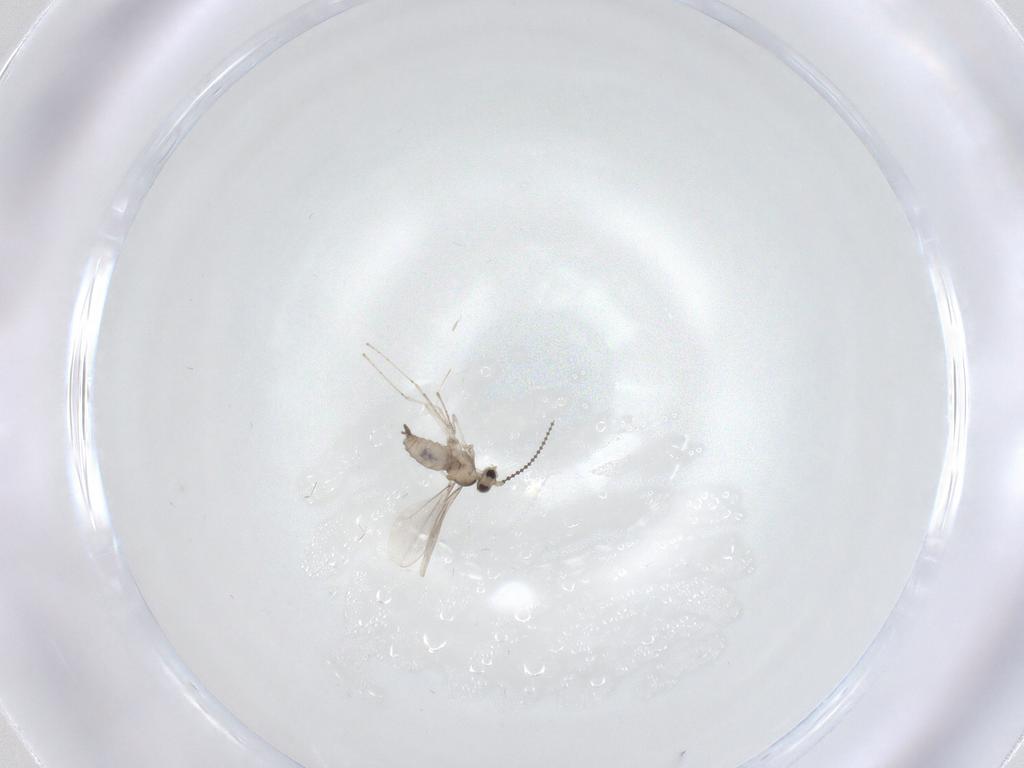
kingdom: Animalia
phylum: Arthropoda
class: Insecta
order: Diptera
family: Cecidomyiidae
